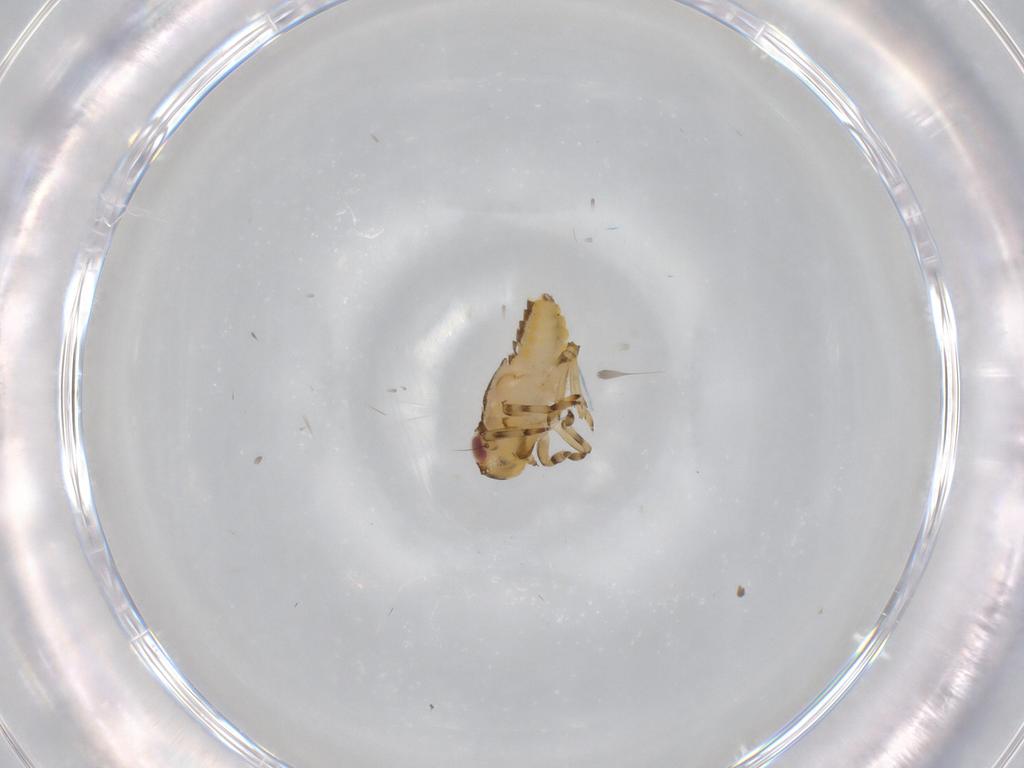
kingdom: Animalia
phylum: Arthropoda
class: Insecta
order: Hemiptera
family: Issidae
